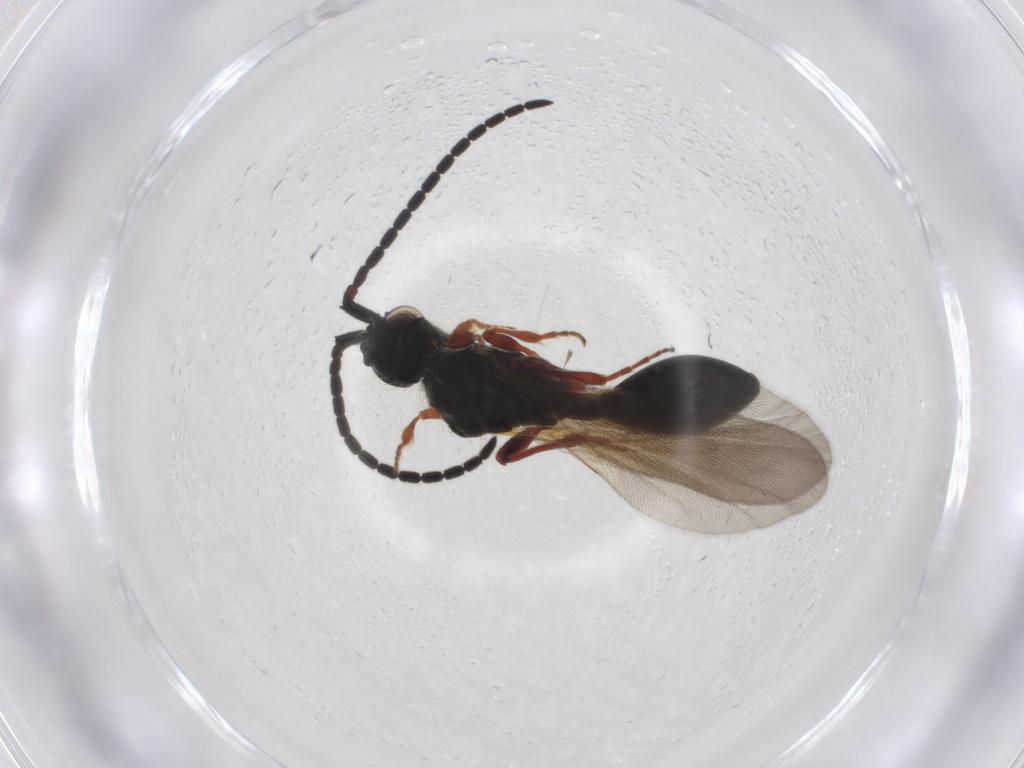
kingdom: Animalia
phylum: Arthropoda
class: Insecta
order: Hymenoptera
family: Diapriidae
